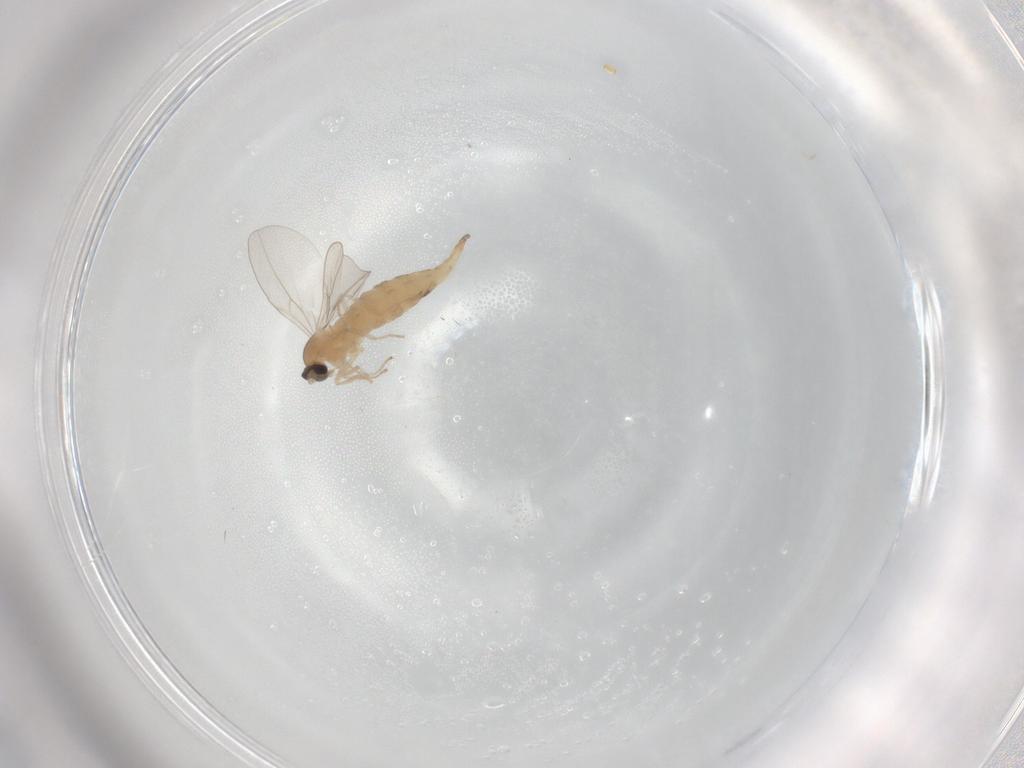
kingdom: Animalia
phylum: Arthropoda
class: Insecta
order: Diptera
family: Cecidomyiidae
